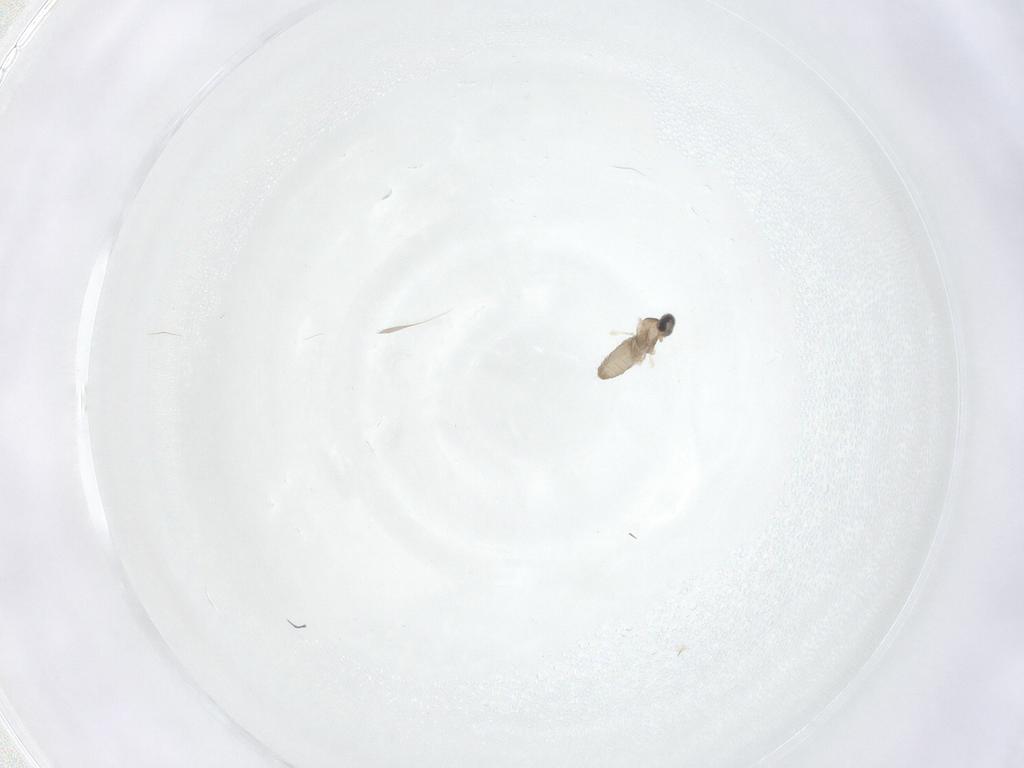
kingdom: Animalia
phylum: Arthropoda
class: Insecta
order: Diptera
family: Cecidomyiidae
